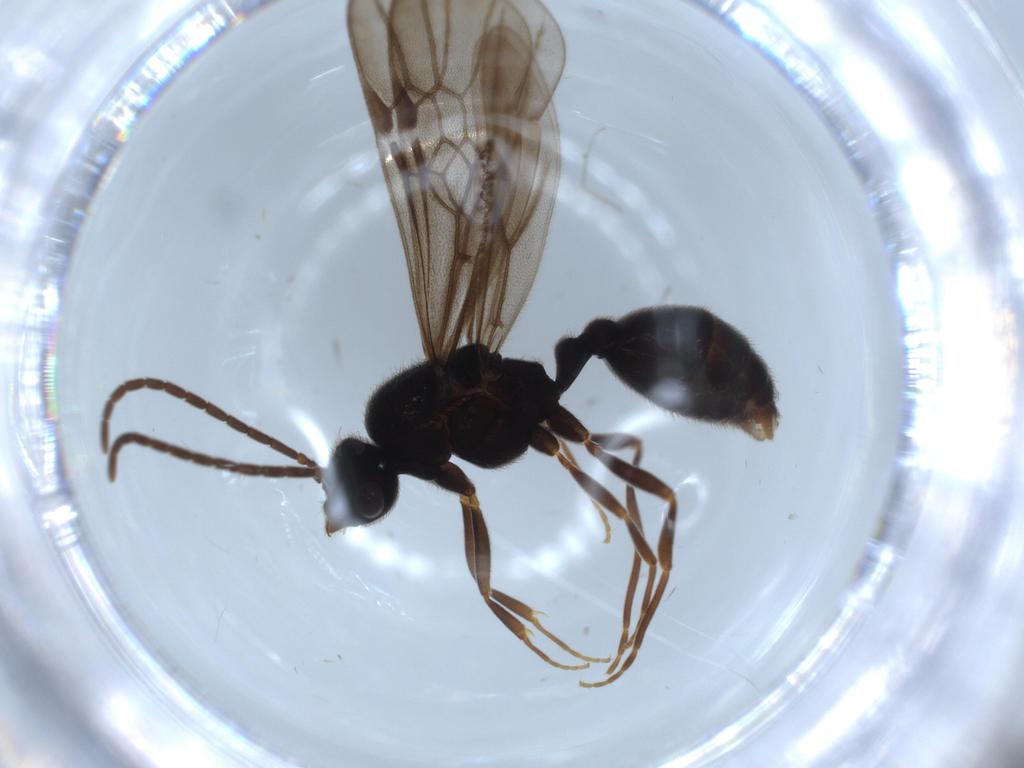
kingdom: Animalia
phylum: Arthropoda
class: Insecta
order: Hymenoptera
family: Formicidae
